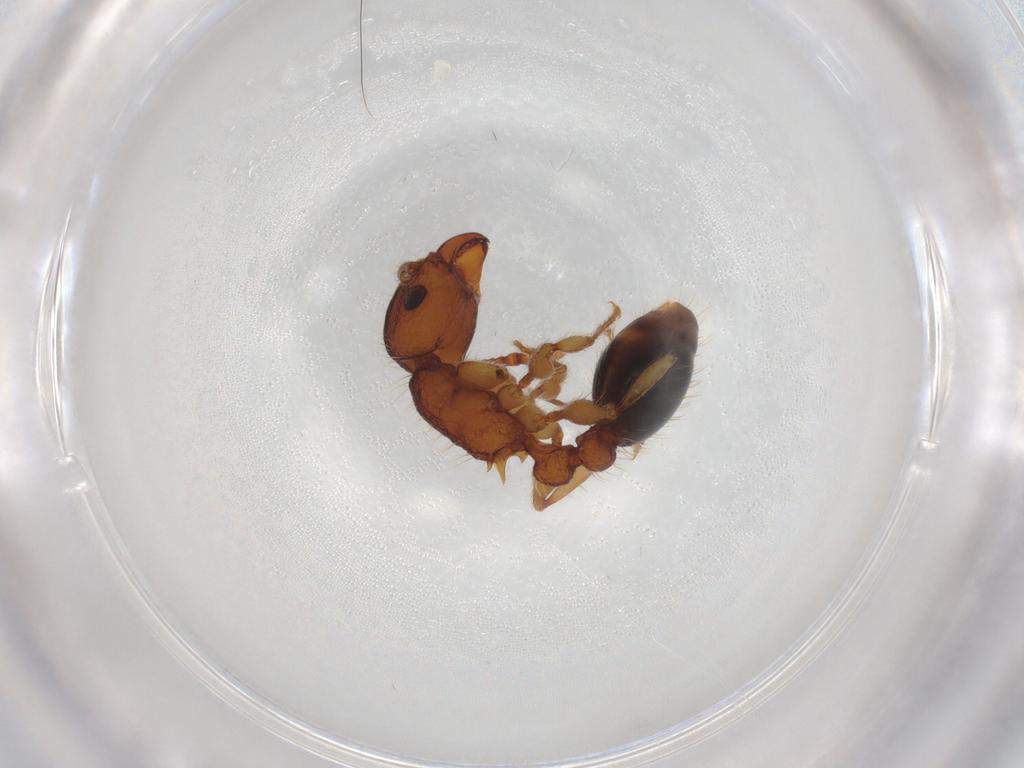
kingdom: Animalia
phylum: Arthropoda
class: Insecta
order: Hymenoptera
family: Formicidae
